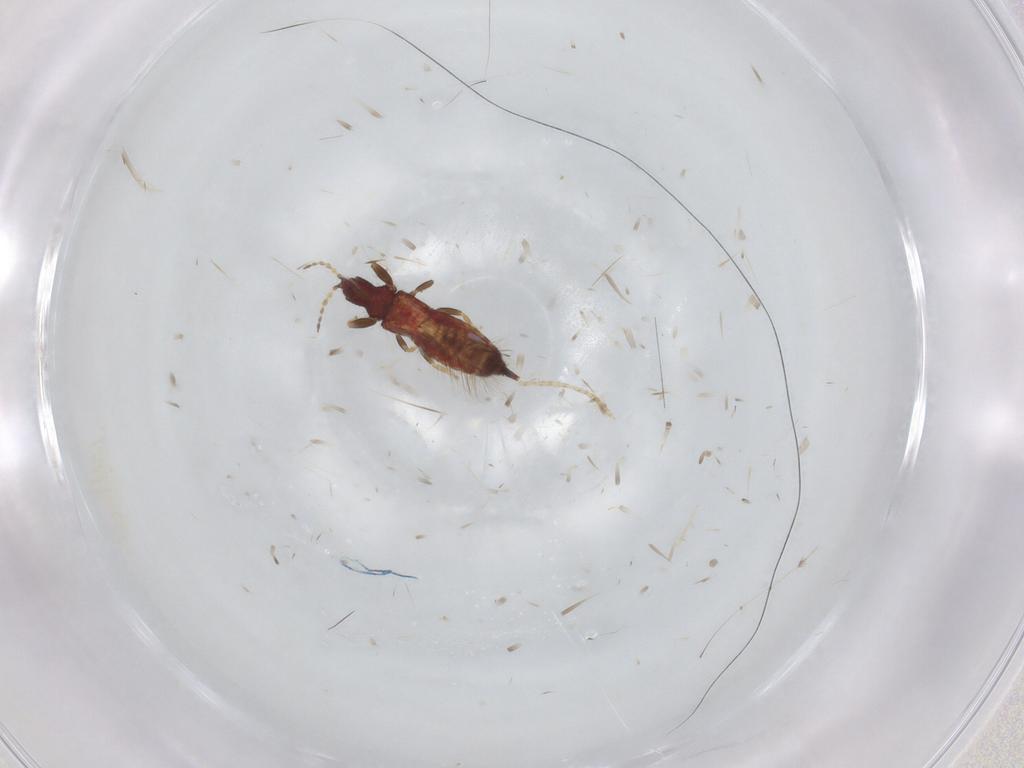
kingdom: Animalia
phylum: Arthropoda
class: Insecta
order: Thysanoptera
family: Phlaeothripidae
